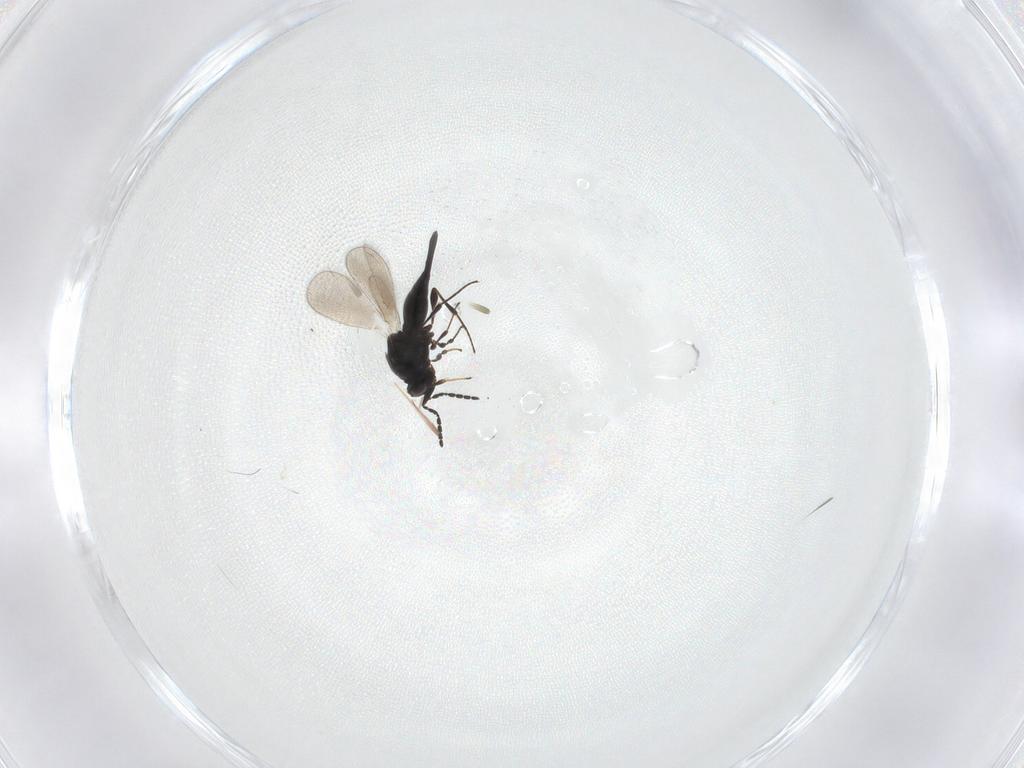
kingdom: Animalia
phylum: Arthropoda
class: Insecta
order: Hymenoptera
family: Platygastridae
